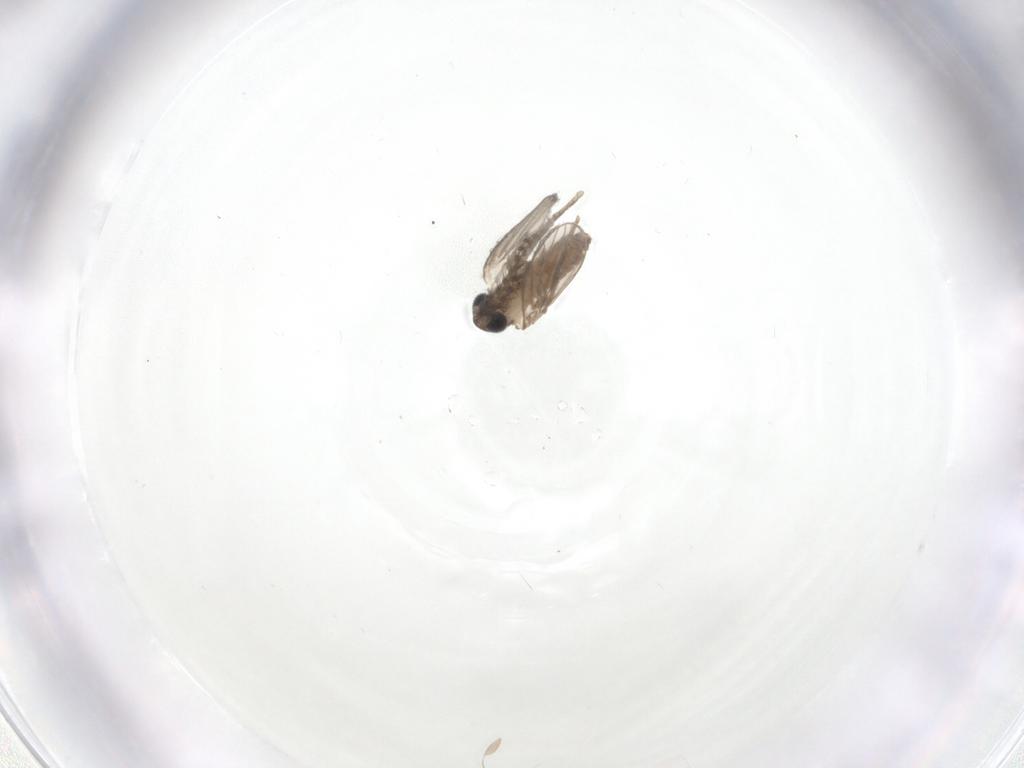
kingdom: Animalia
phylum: Arthropoda
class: Insecta
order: Diptera
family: Psychodidae
